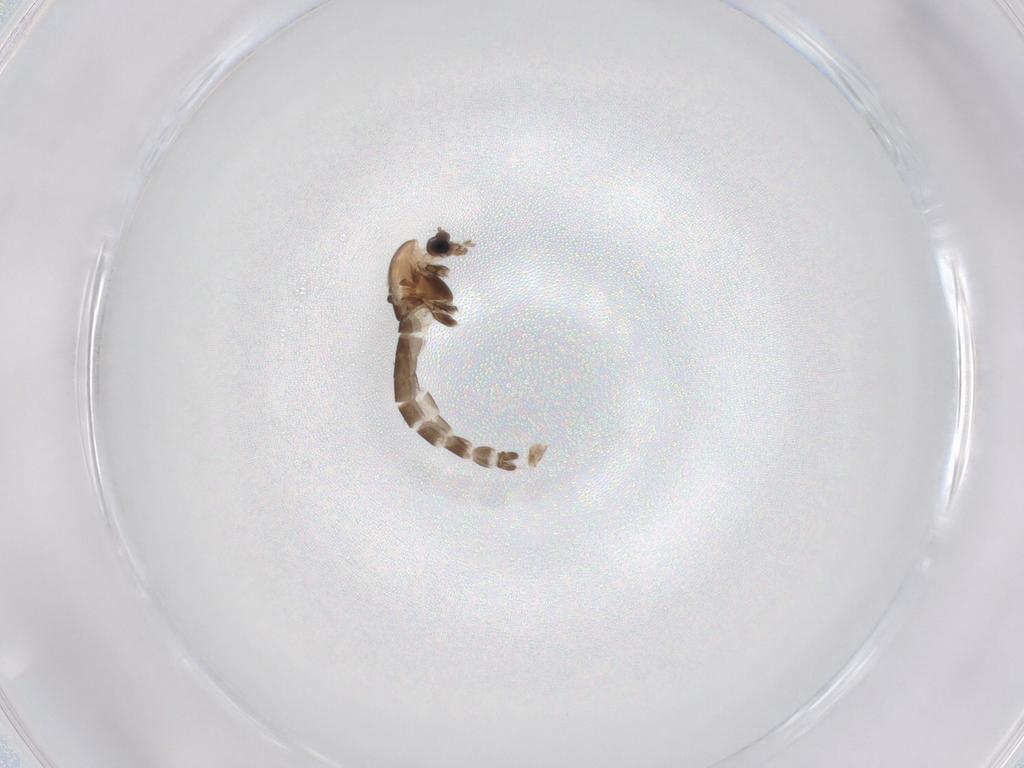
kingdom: Animalia
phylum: Arthropoda
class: Insecta
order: Diptera
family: Chironomidae
